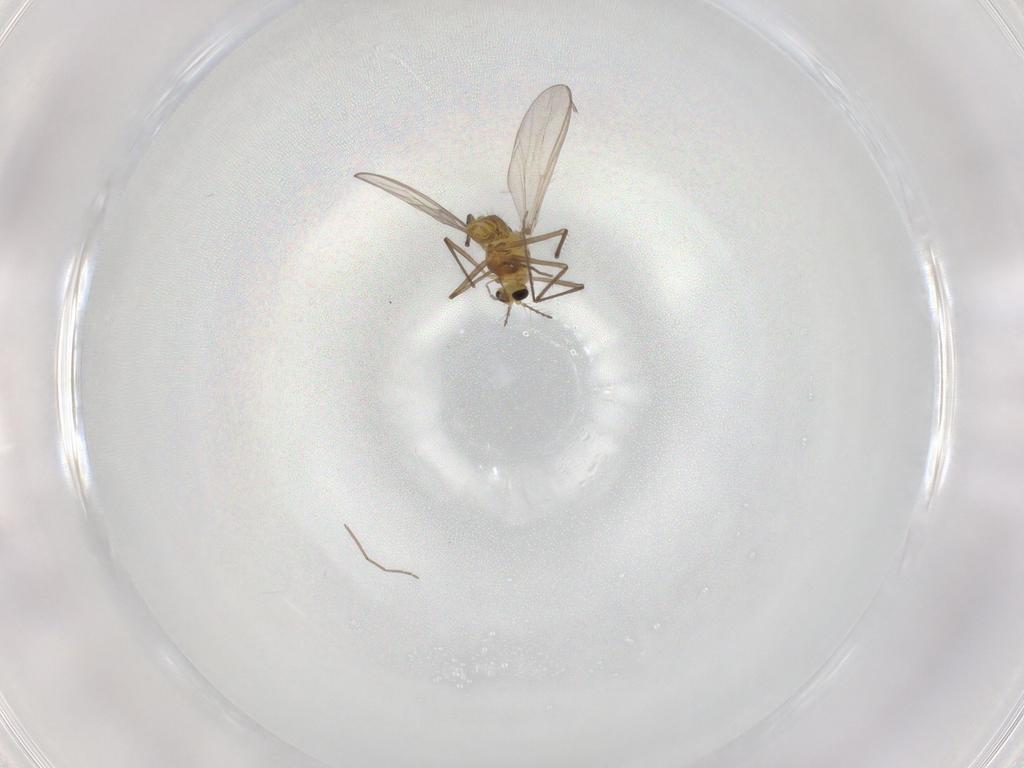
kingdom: Animalia
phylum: Arthropoda
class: Insecta
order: Diptera
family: Chironomidae
